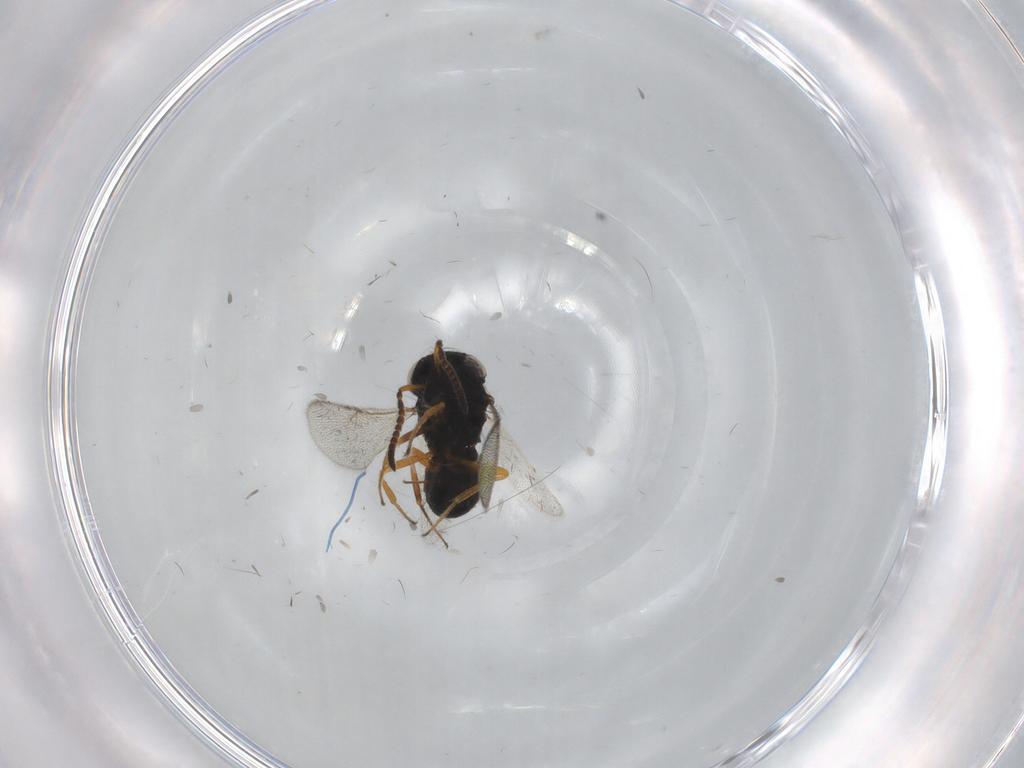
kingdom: Animalia
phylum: Arthropoda
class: Insecta
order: Hymenoptera
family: Scelionidae
